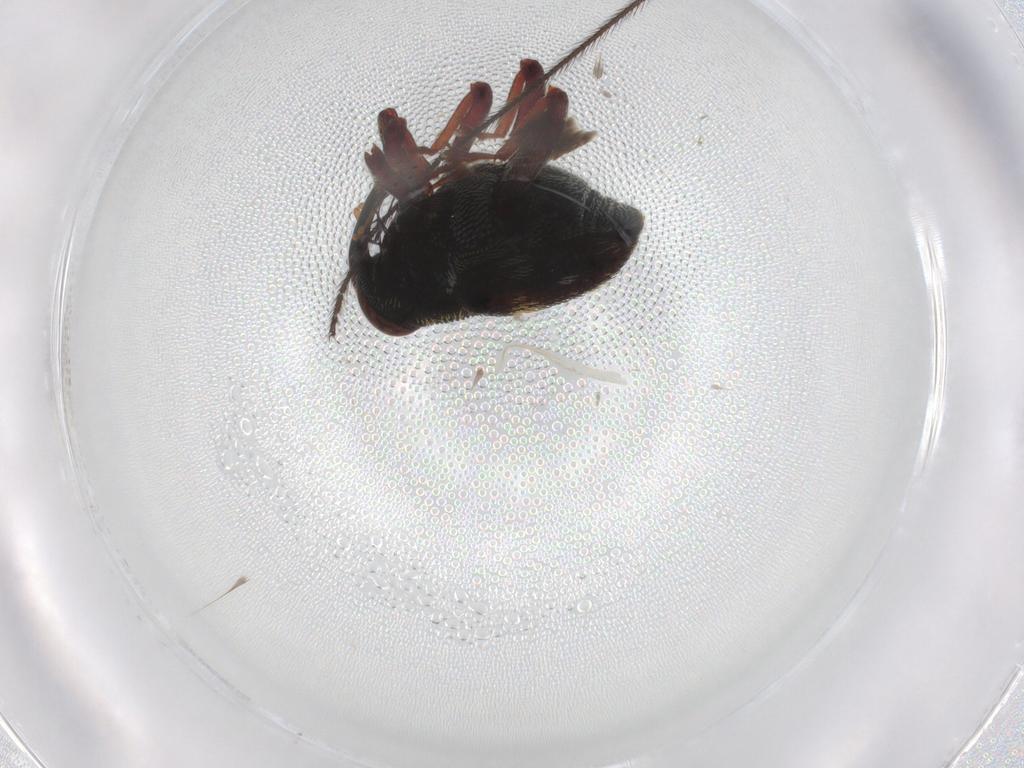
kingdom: Animalia
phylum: Arthropoda
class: Insecta
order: Coleoptera
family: Chrysomelidae
